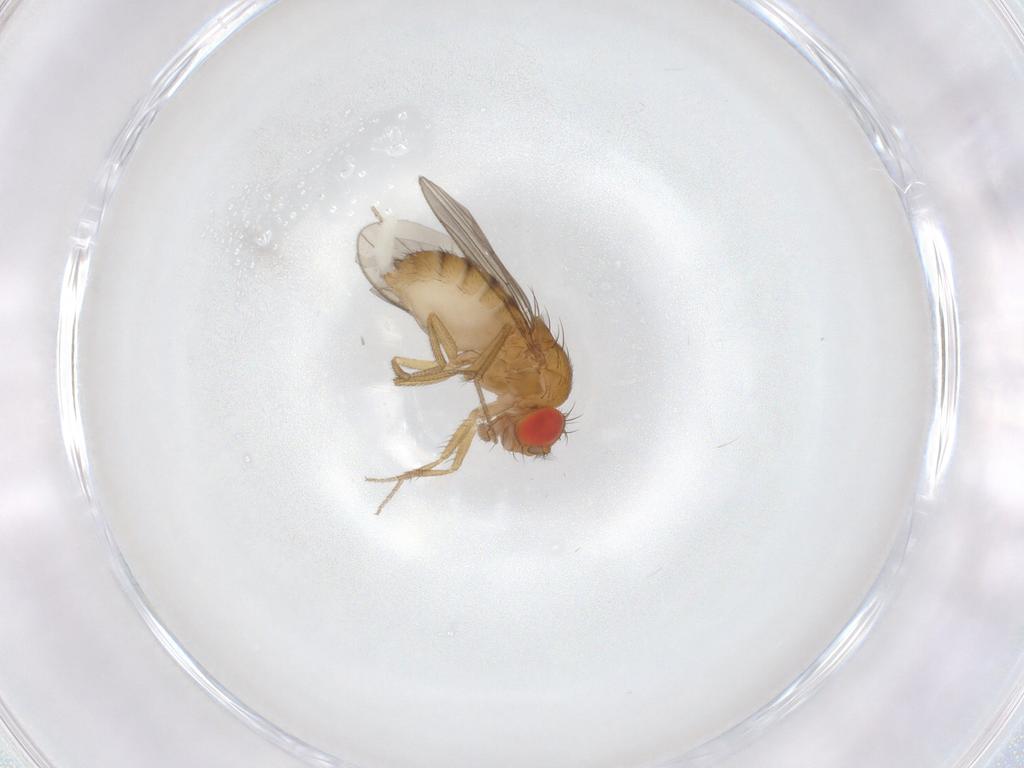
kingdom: Animalia
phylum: Arthropoda
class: Insecta
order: Diptera
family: Drosophilidae
